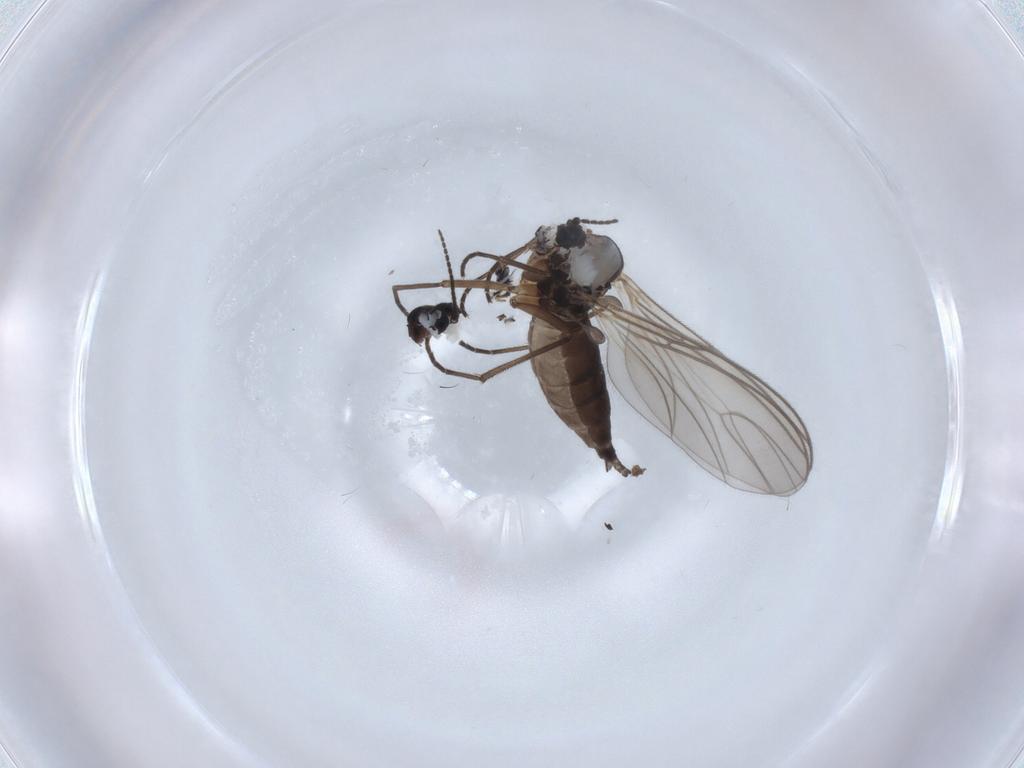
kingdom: Animalia
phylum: Arthropoda
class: Insecta
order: Diptera
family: Sciaridae
